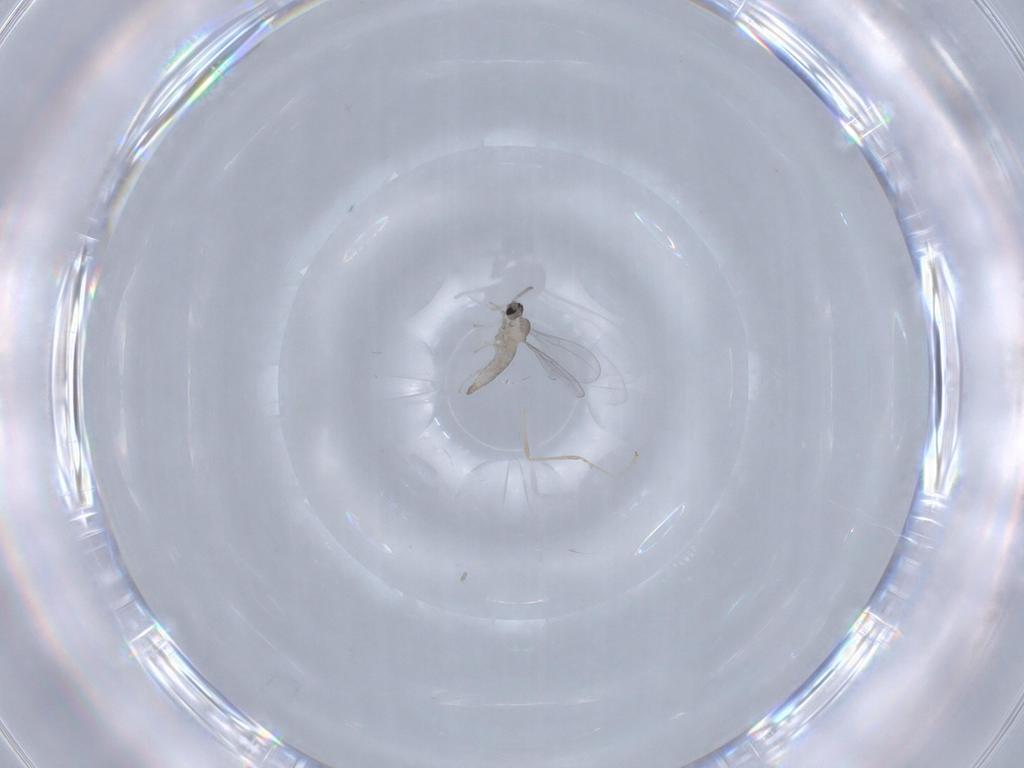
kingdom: Animalia
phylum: Arthropoda
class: Insecta
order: Diptera
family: Cecidomyiidae
